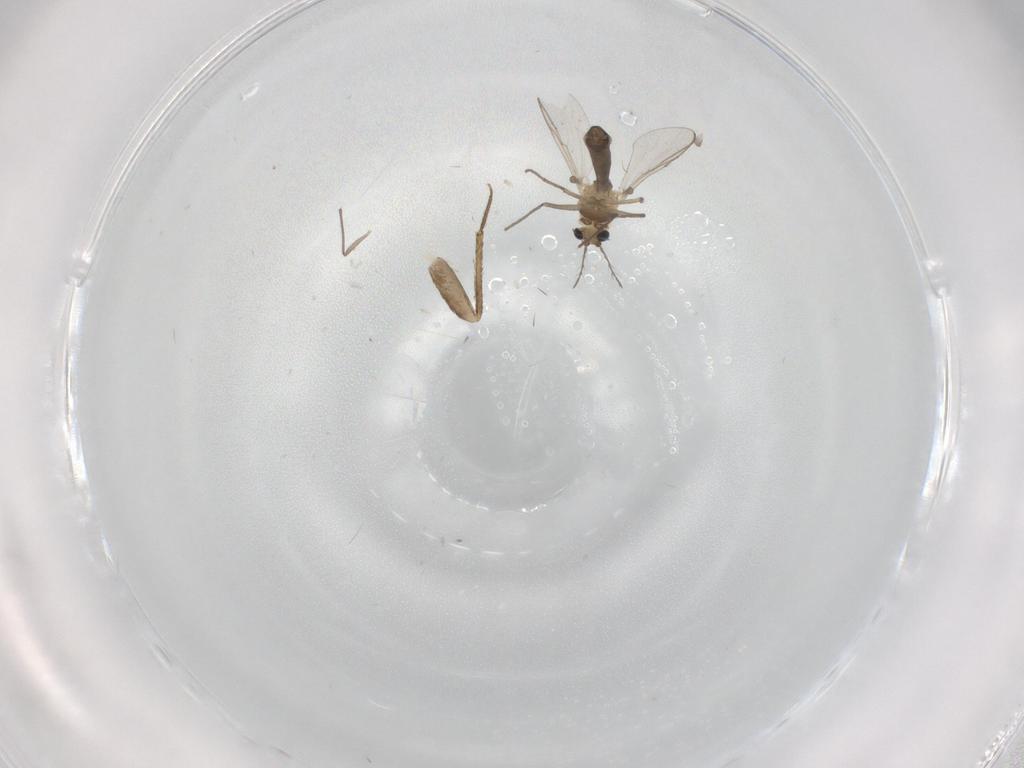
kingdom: Animalia
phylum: Arthropoda
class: Insecta
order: Diptera
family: Chironomidae
